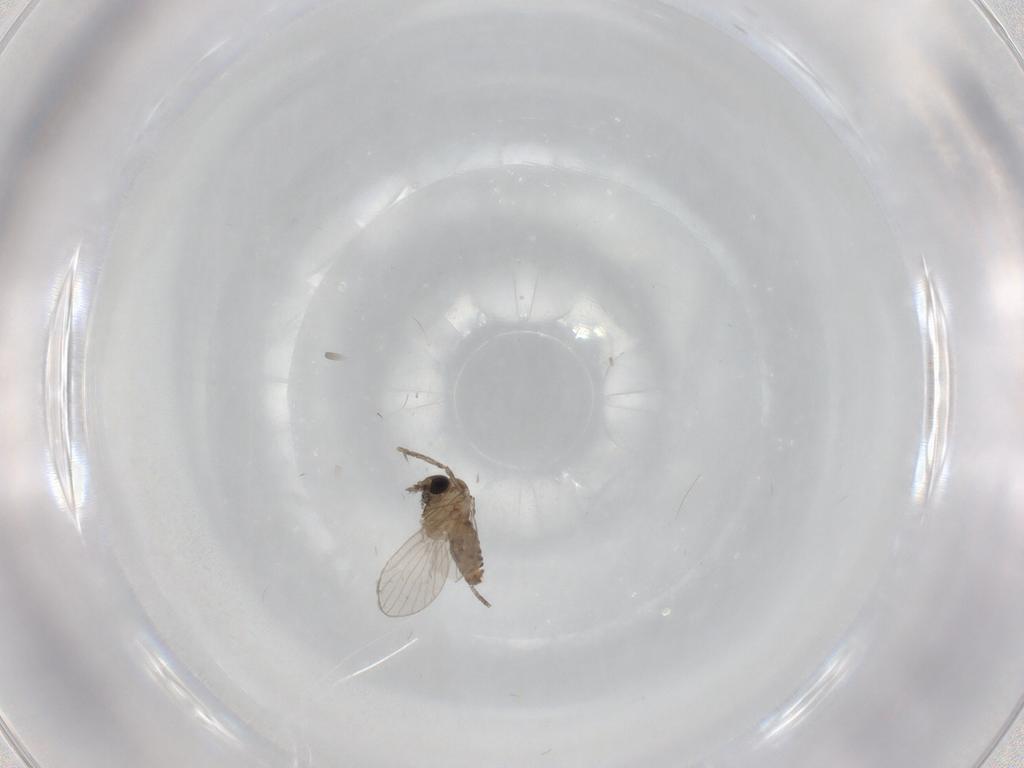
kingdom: Animalia
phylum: Arthropoda
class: Insecta
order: Diptera
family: Psychodidae
